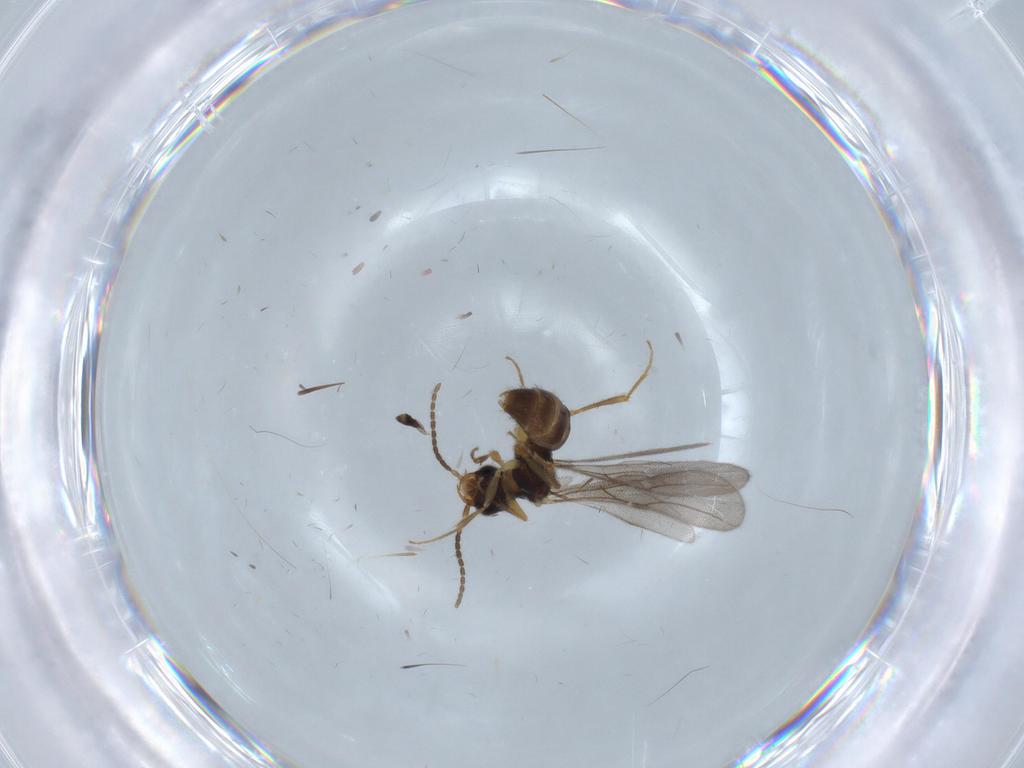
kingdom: Animalia
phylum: Arthropoda
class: Insecta
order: Hymenoptera
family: Bethylidae
